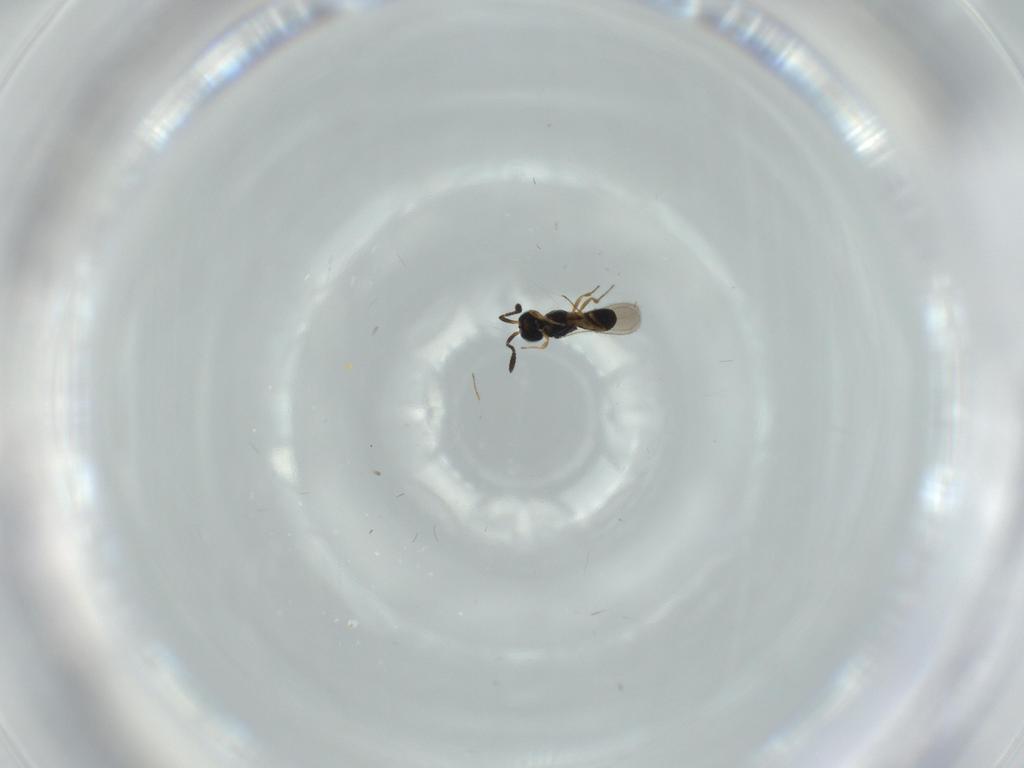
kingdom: Animalia
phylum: Arthropoda
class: Insecta
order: Hymenoptera
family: Scelionidae
